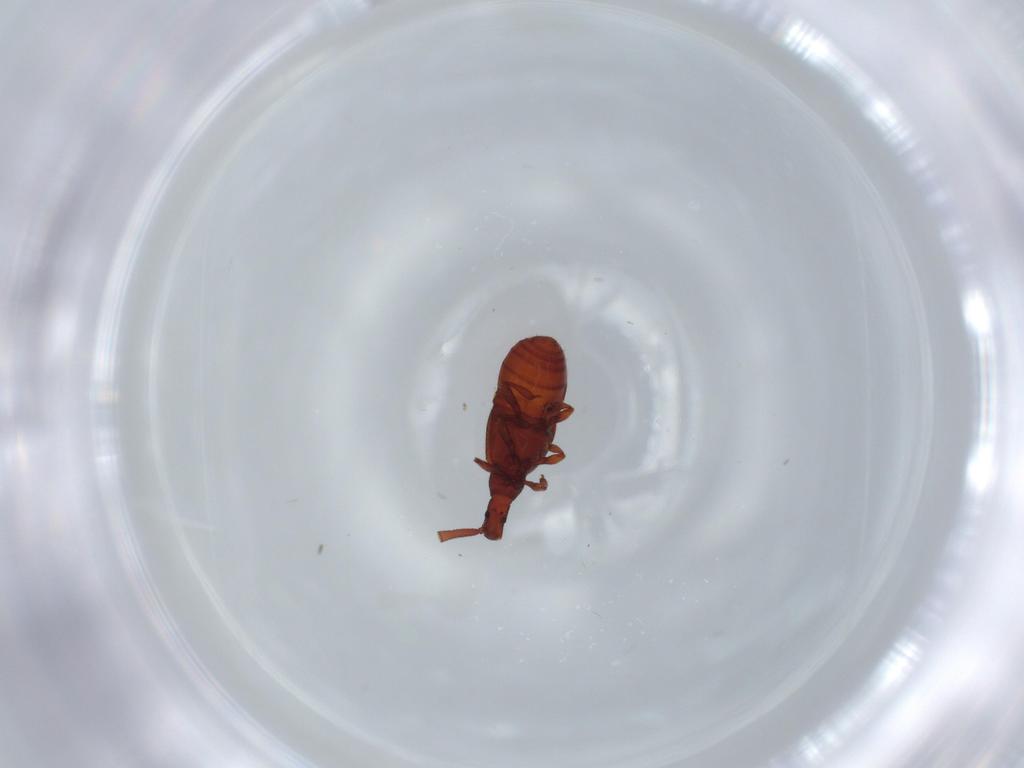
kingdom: Animalia
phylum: Arthropoda
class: Insecta
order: Coleoptera
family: Staphylinidae
